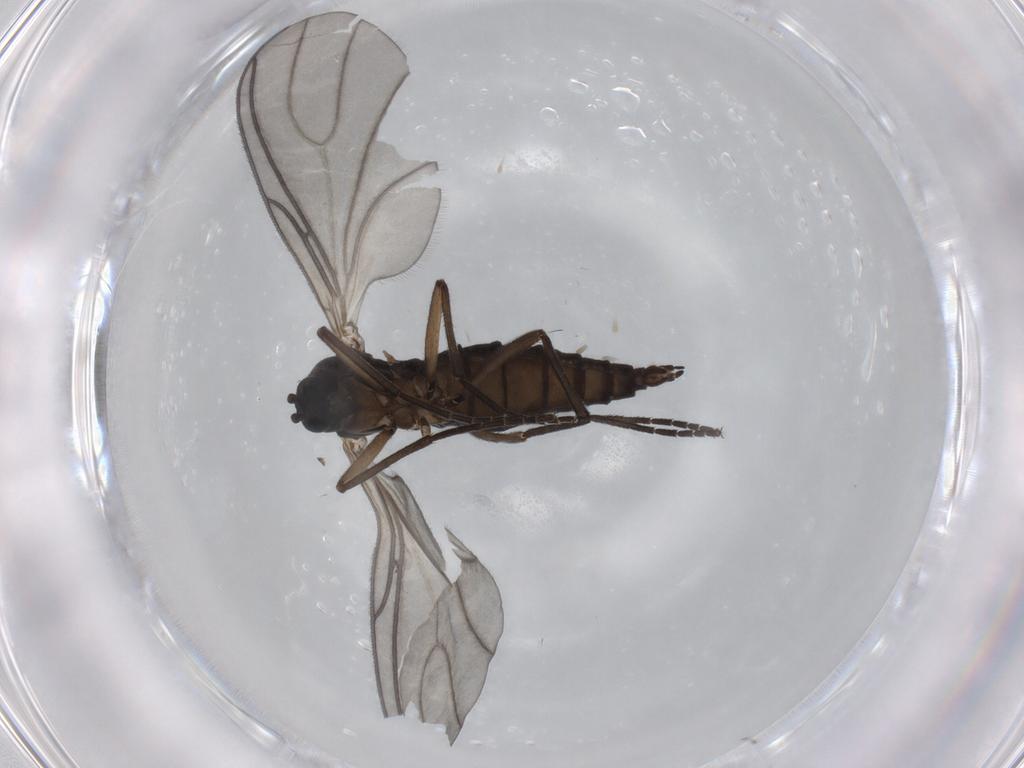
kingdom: Animalia
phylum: Arthropoda
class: Insecta
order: Diptera
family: Sciaridae
